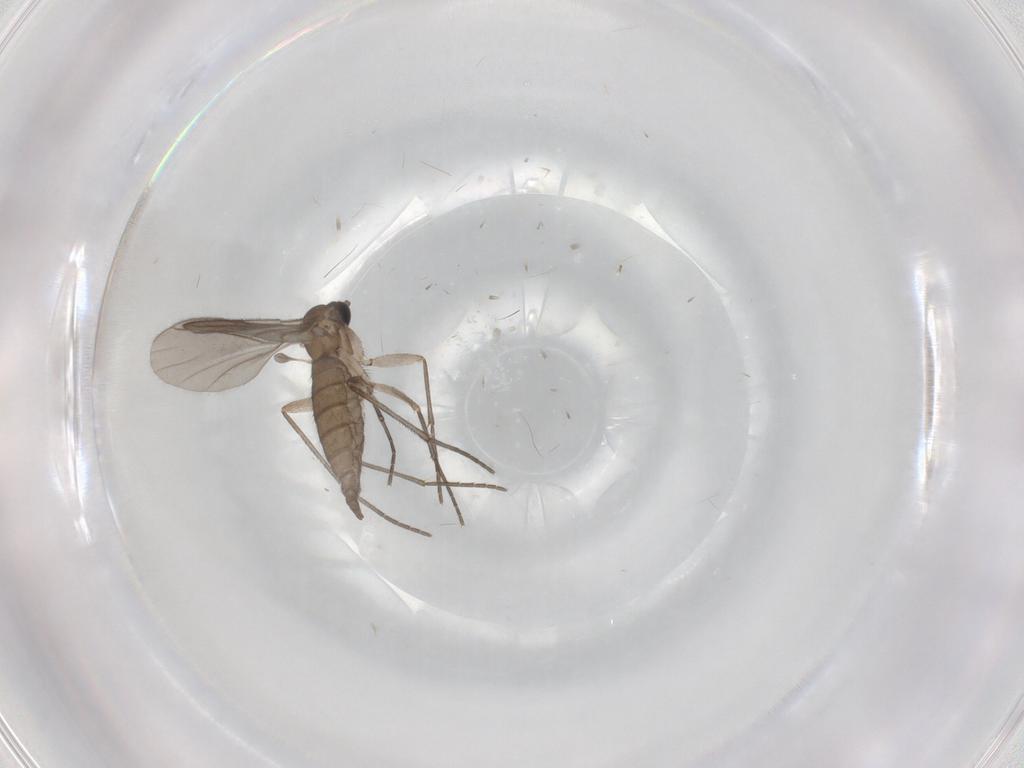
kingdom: Animalia
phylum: Arthropoda
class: Insecta
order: Diptera
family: Sciaridae
